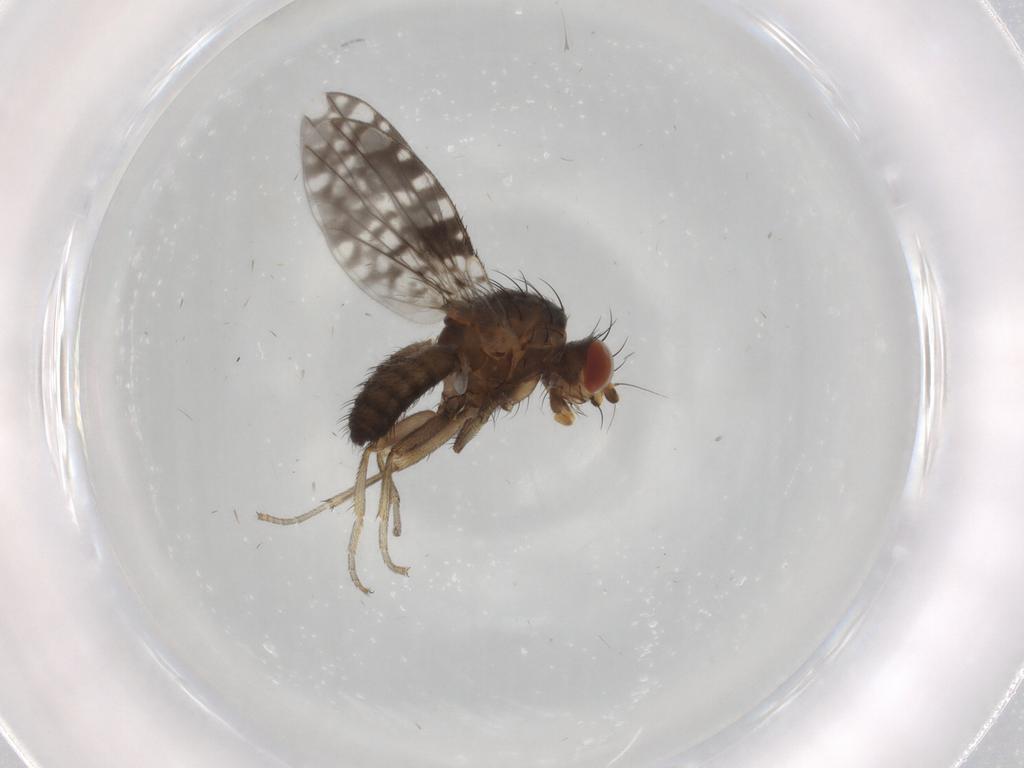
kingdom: Animalia
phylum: Arthropoda
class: Insecta
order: Diptera
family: Tephritidae
